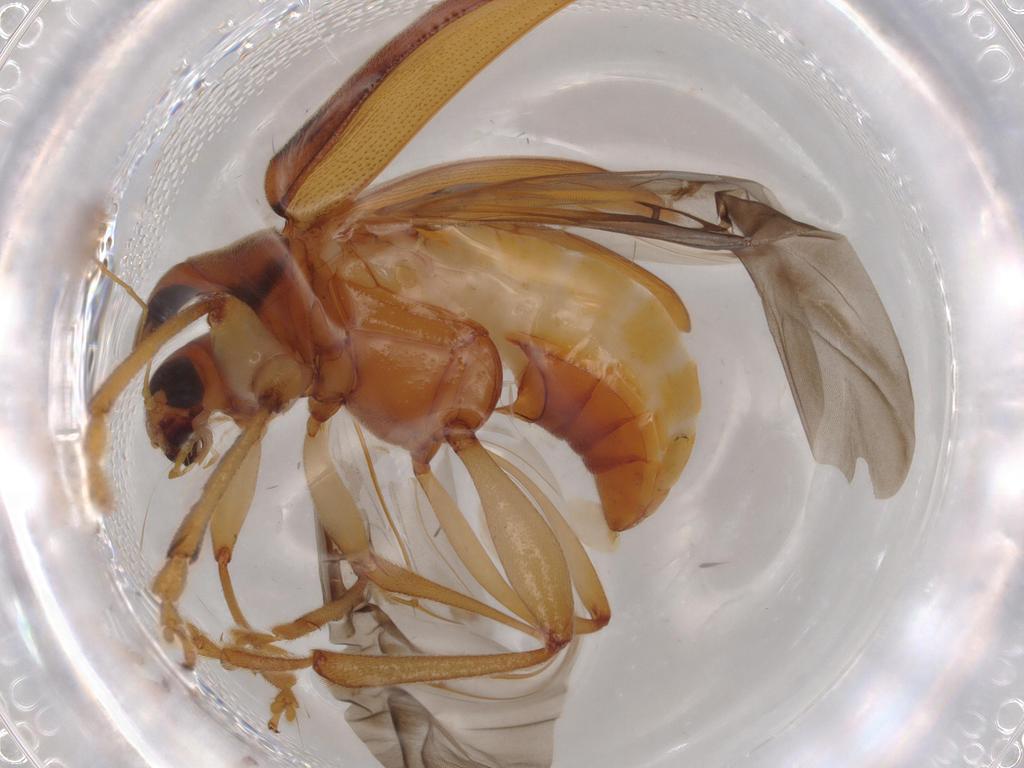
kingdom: Animalia
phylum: Arthropoda
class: Insecta
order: Coleoptera
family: Chrysomelidae
